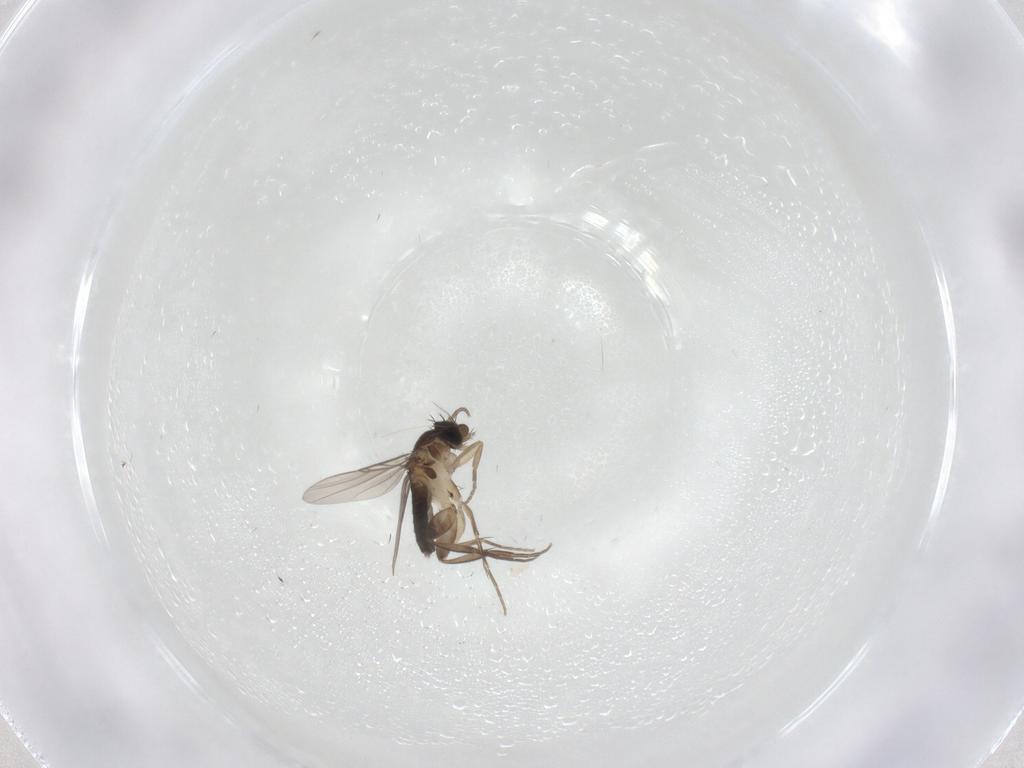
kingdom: Animalia
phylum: Arthropoda
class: Insecta
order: Diptera
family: Phoridae
